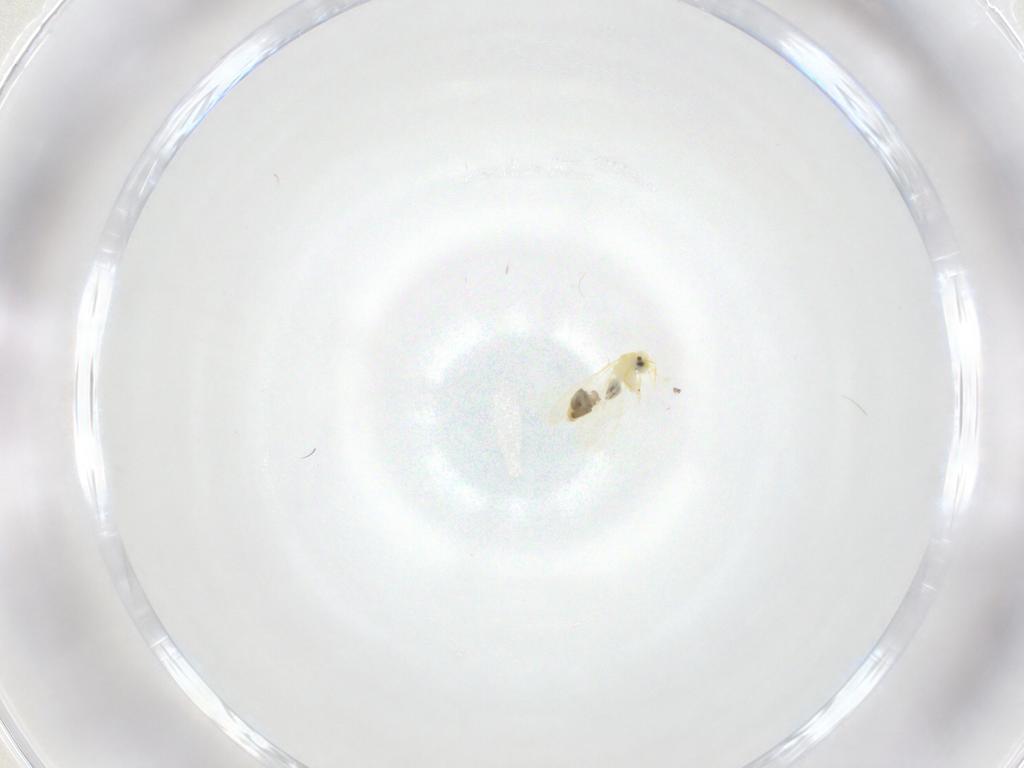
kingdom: Animalia
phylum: Arthropoda
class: Insecta
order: Hemiptera
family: Aleyrodidae
